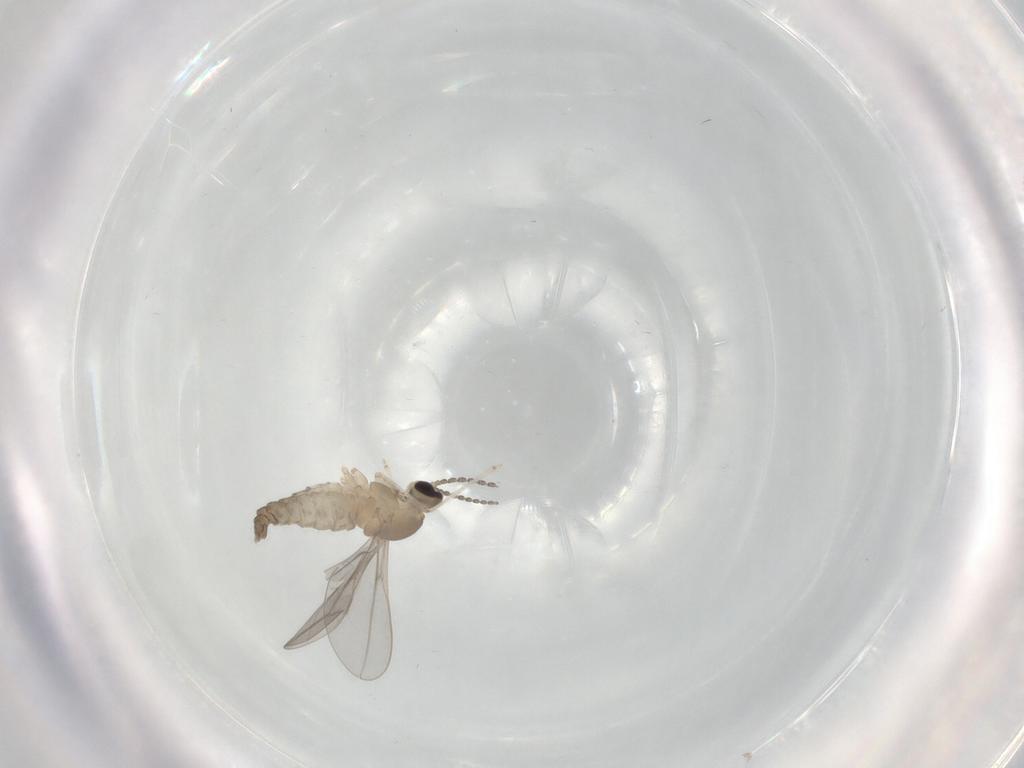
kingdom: Animalia
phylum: Arthropoda
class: Insecta
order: Diptera
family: Cecidomyiidae
